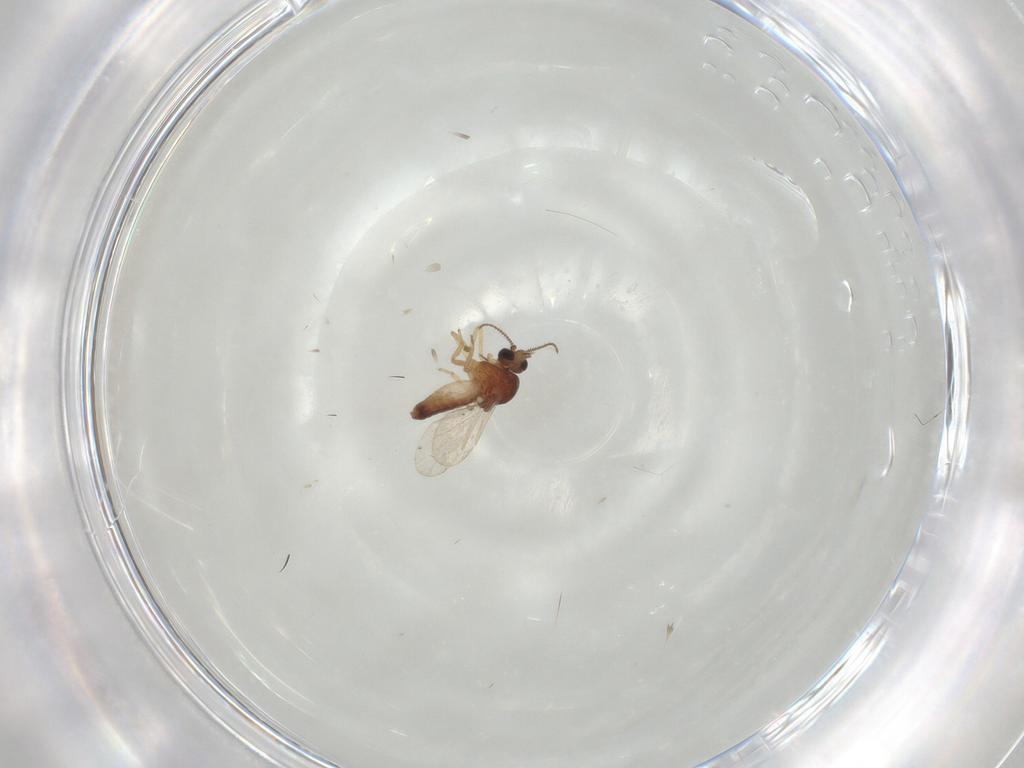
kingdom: Animalia
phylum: Arthropoda
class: Insecta
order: Diptera
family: Ceratopogonidae
